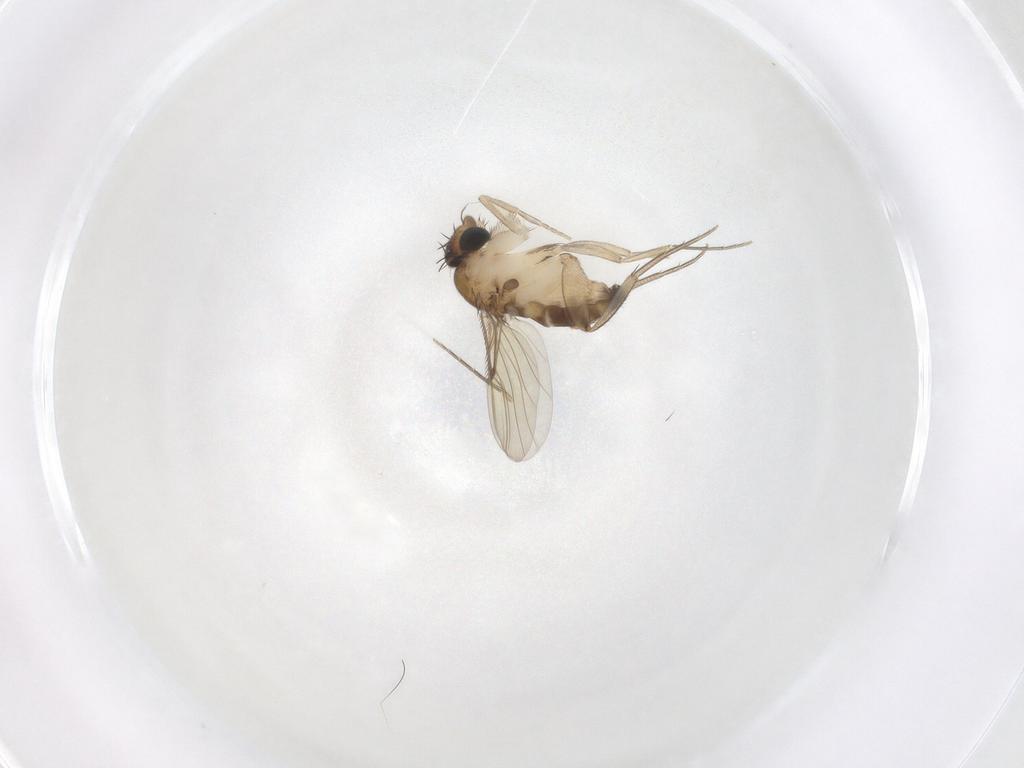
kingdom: Animalia
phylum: Arthropoda
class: Insecta
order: Diptera
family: Phoridae
